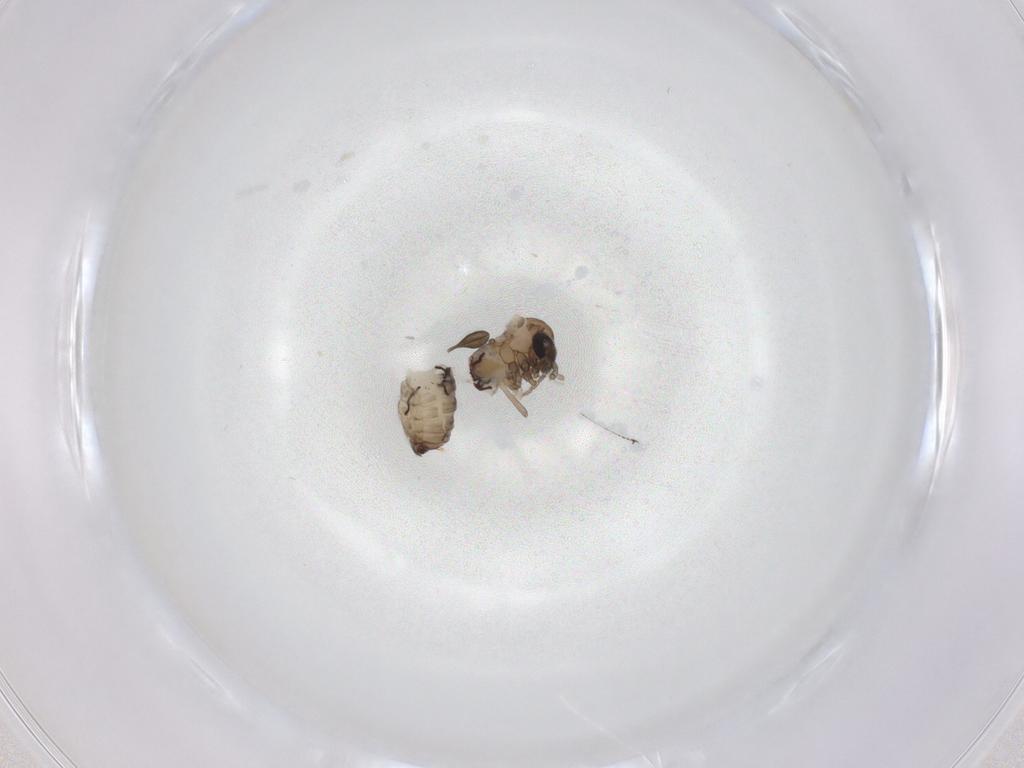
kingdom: Animalia
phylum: Arthropoda
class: Insecta
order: Diptera
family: Psychodidae
